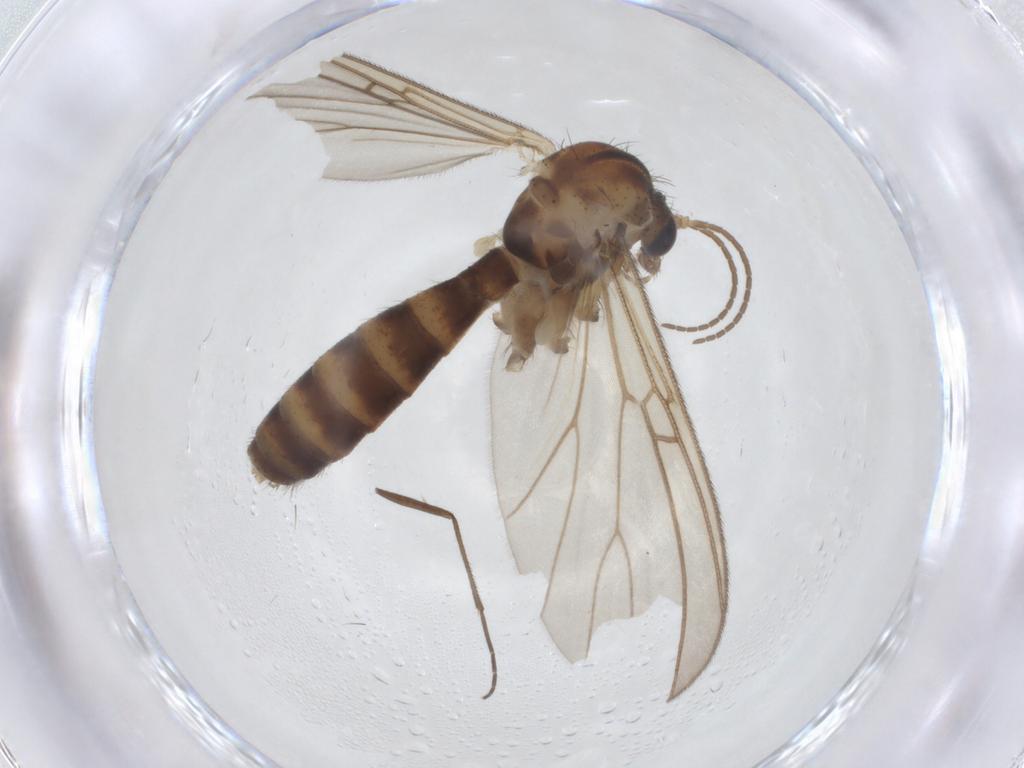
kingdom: Animalia
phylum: Arthropoda
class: Insecta
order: Diptera
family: Mycetophilidae
